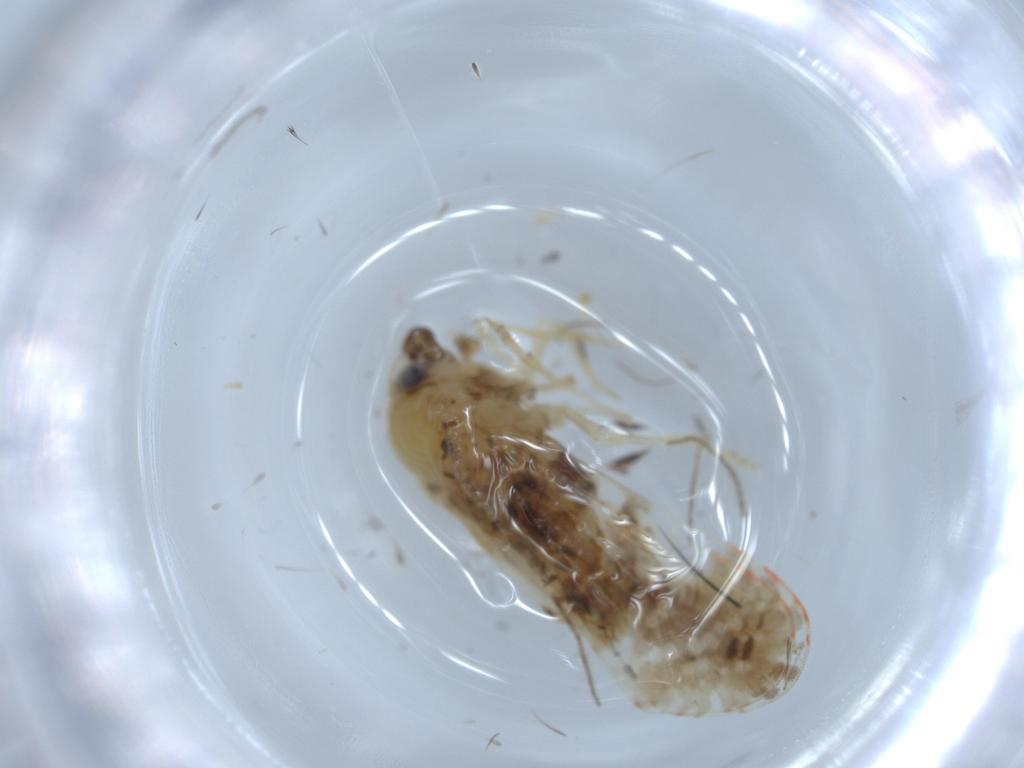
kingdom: Animalia
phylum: Arthropoda
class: Insecta
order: Hemiptera
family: Derbidae
